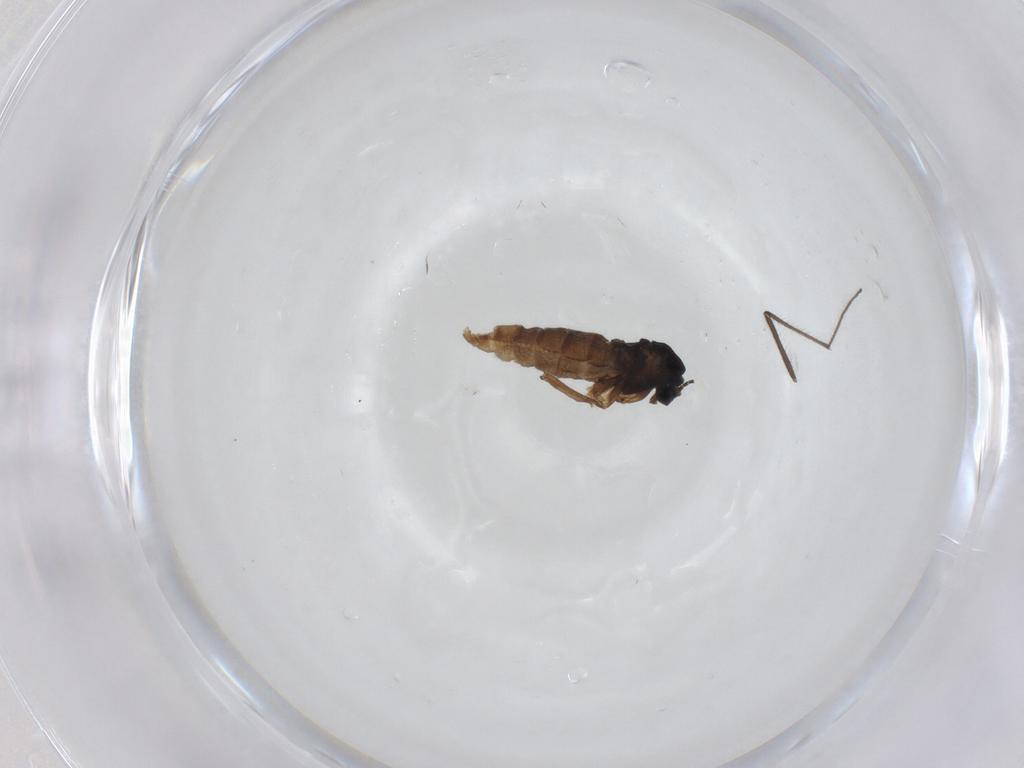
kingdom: Animalia
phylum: Arthropoda
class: Insecta
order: Diptera
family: Sciaridae
